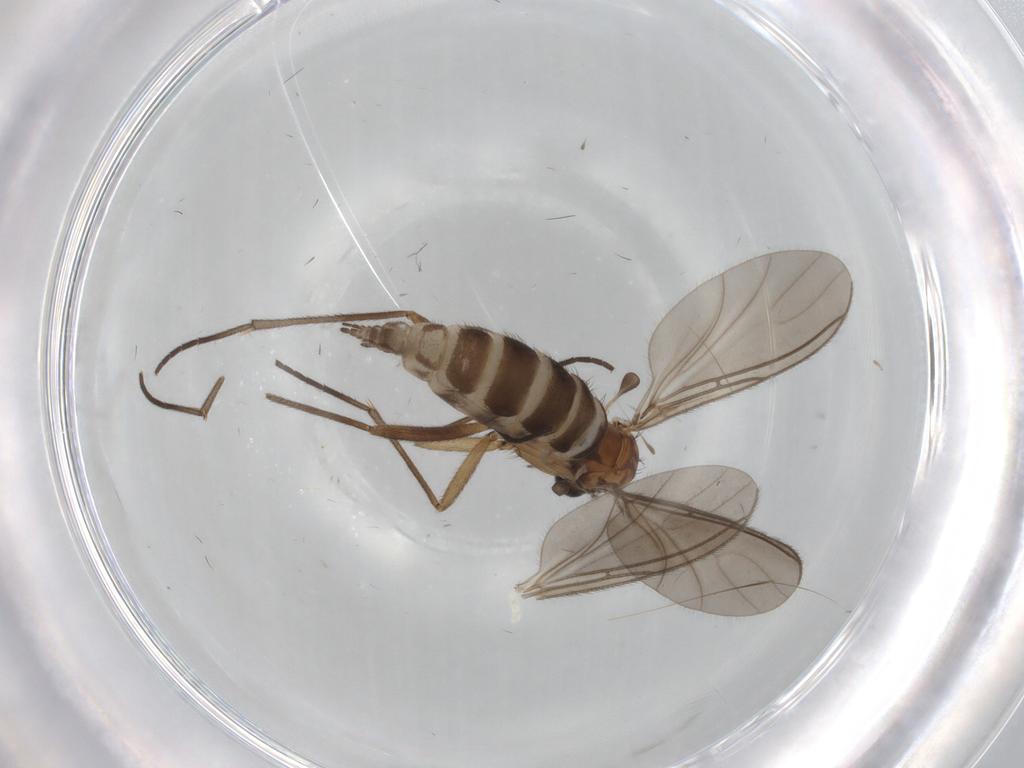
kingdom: Animalia
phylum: Arthropoda
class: Insecta
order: Diptera
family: Sciaridae
